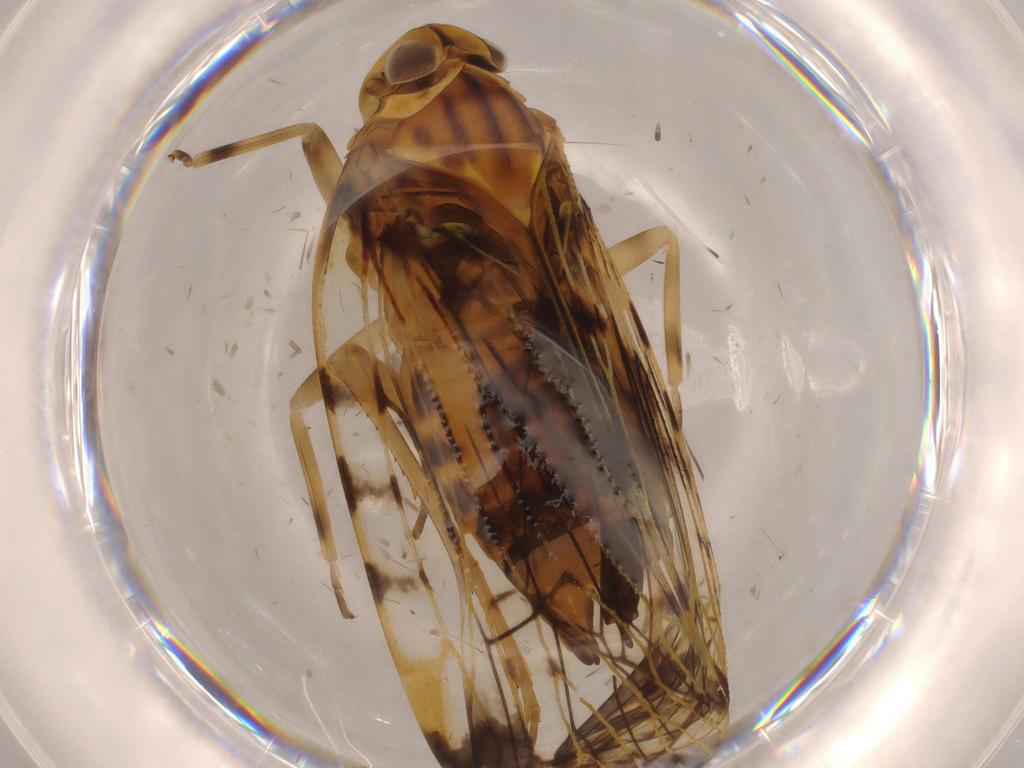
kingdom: Animalia
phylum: Arthropoda
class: Insecta
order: Hemiptera
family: Cixiidae
